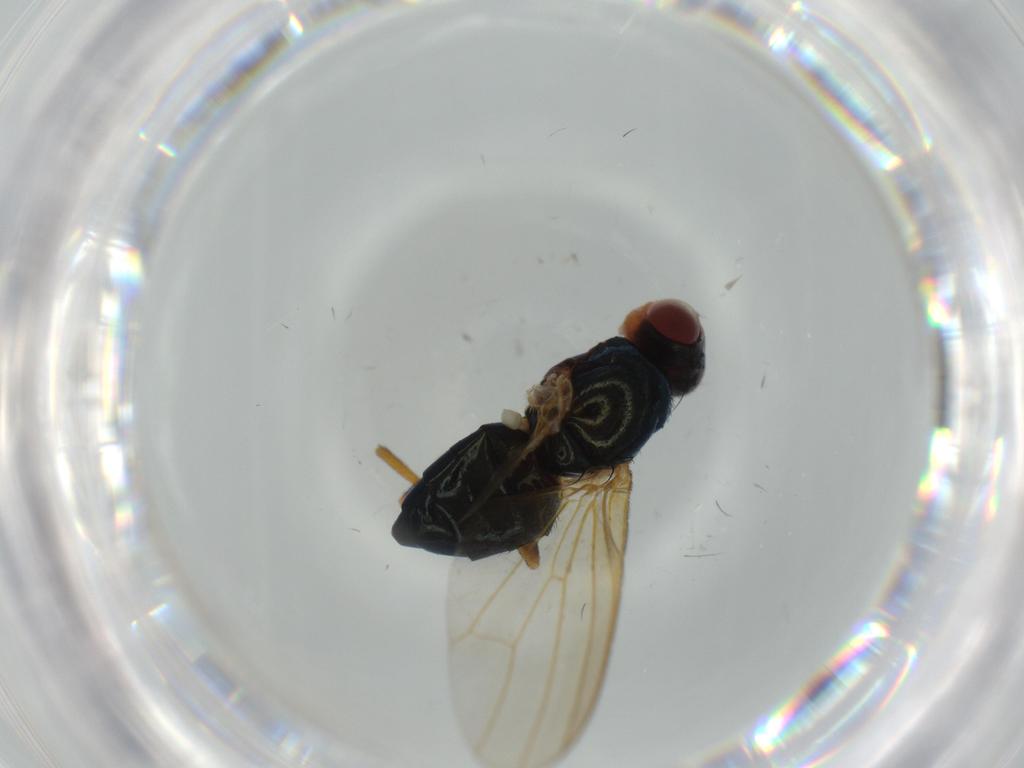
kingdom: Animalia
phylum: Arthropoda
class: Insecta
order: Diptera
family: Piophilidae
